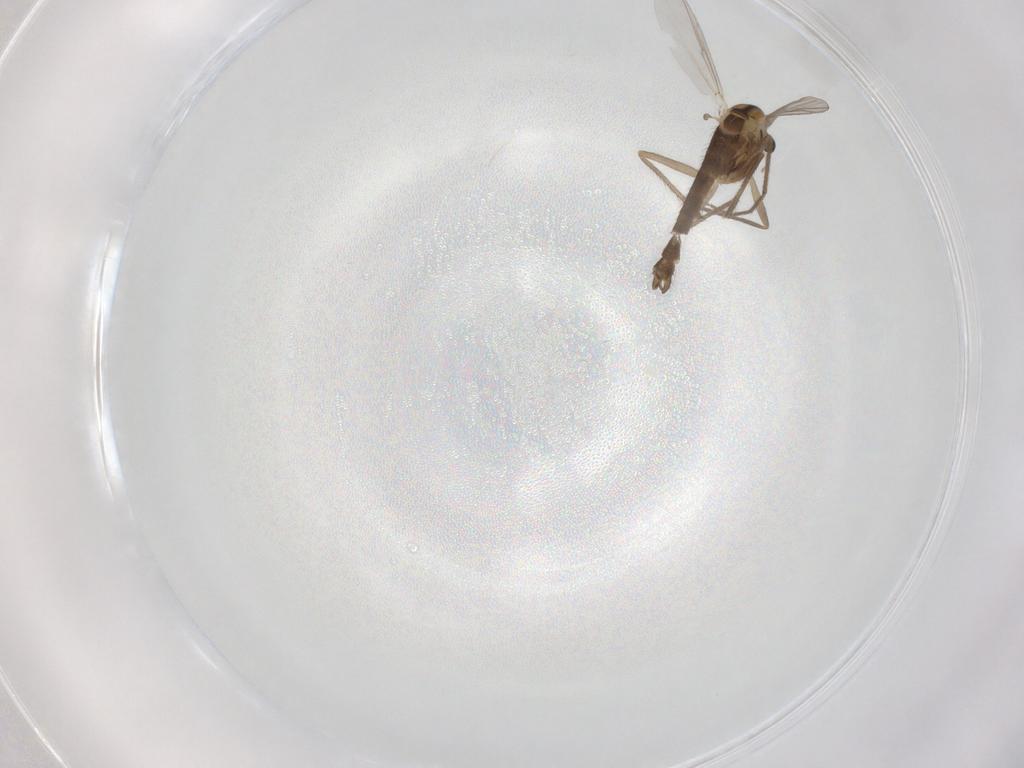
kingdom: Animalia
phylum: Arthropoda
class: Insecta
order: Diptera
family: Chironomidae
